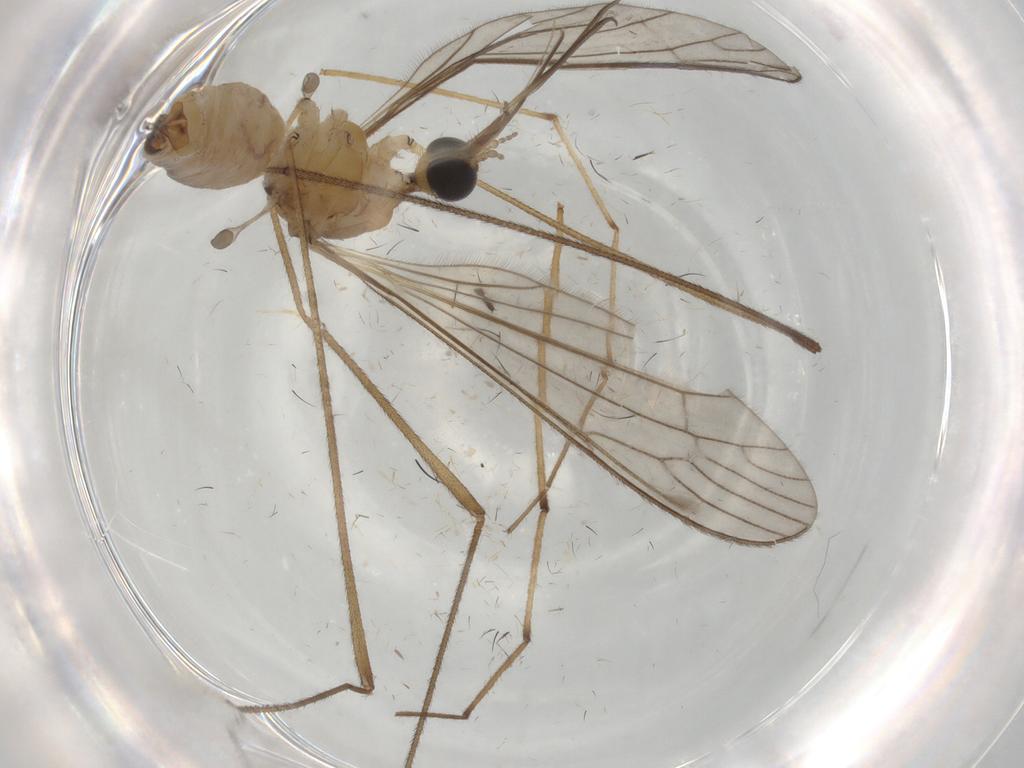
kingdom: Animalia
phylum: Arthropoda
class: Insecta
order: Diptera
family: Limoniidae
